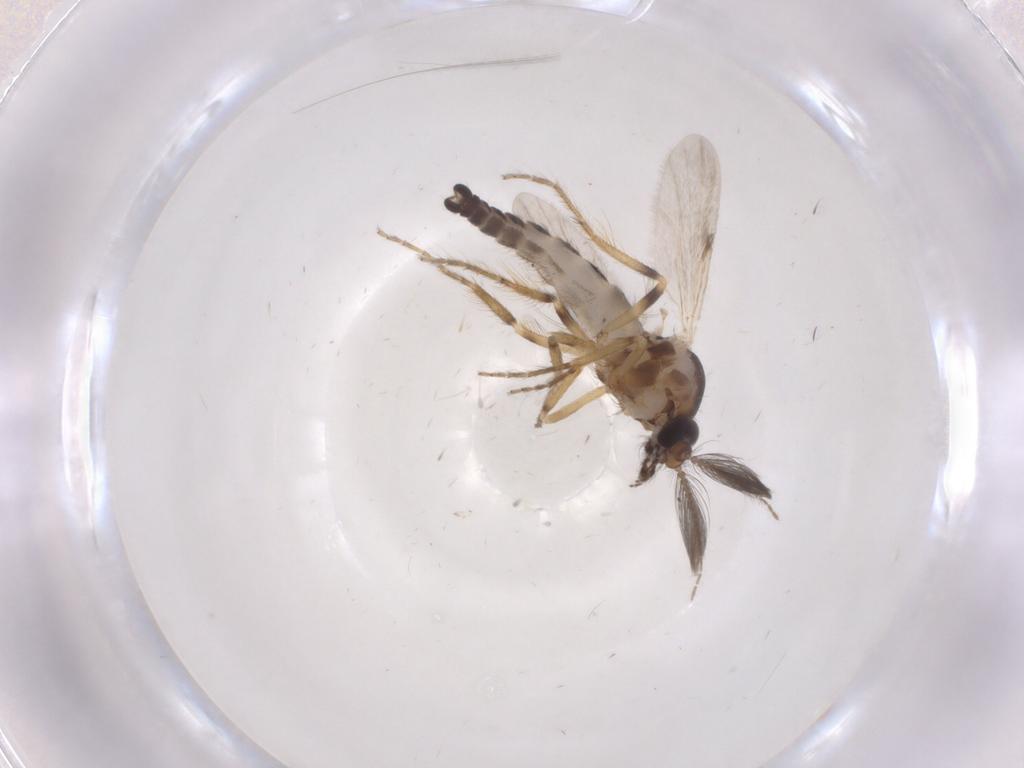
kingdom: Animalia
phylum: Arthropoda
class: Insecta
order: Diptera
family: Ceratopogonidae
